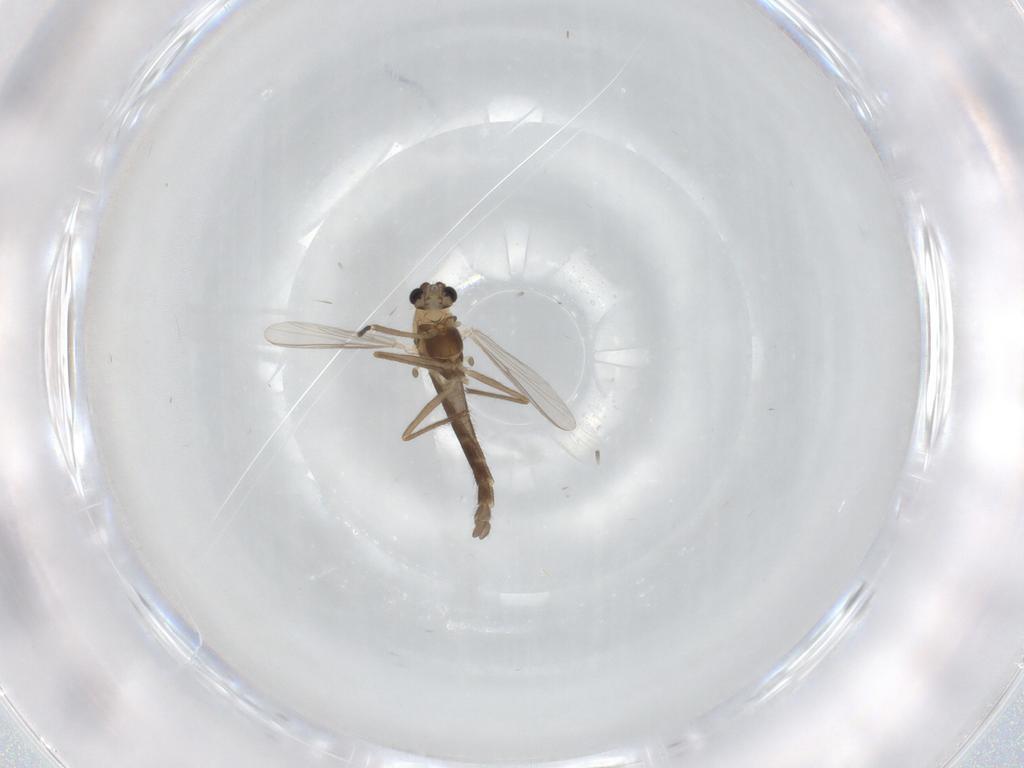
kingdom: Animalia
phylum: Arthropoda
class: Insecta
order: Diptera
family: Chironomidae
